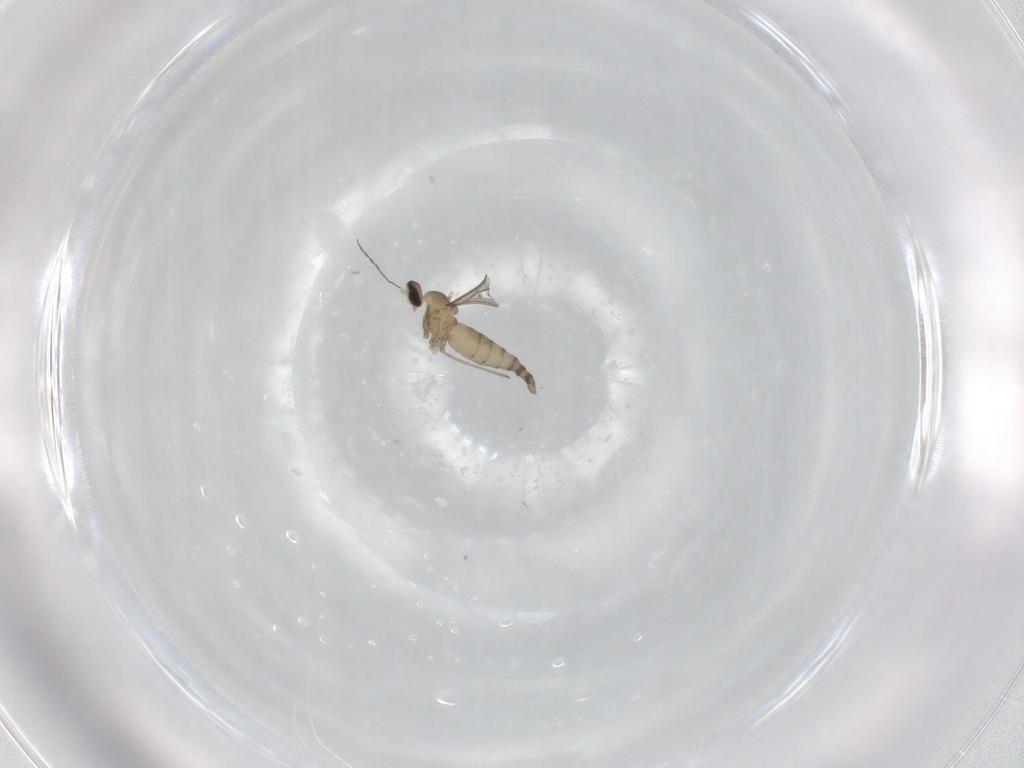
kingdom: Animalia
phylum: Arthropoda
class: Insecta
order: Diptera
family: Cecidomyiidae
